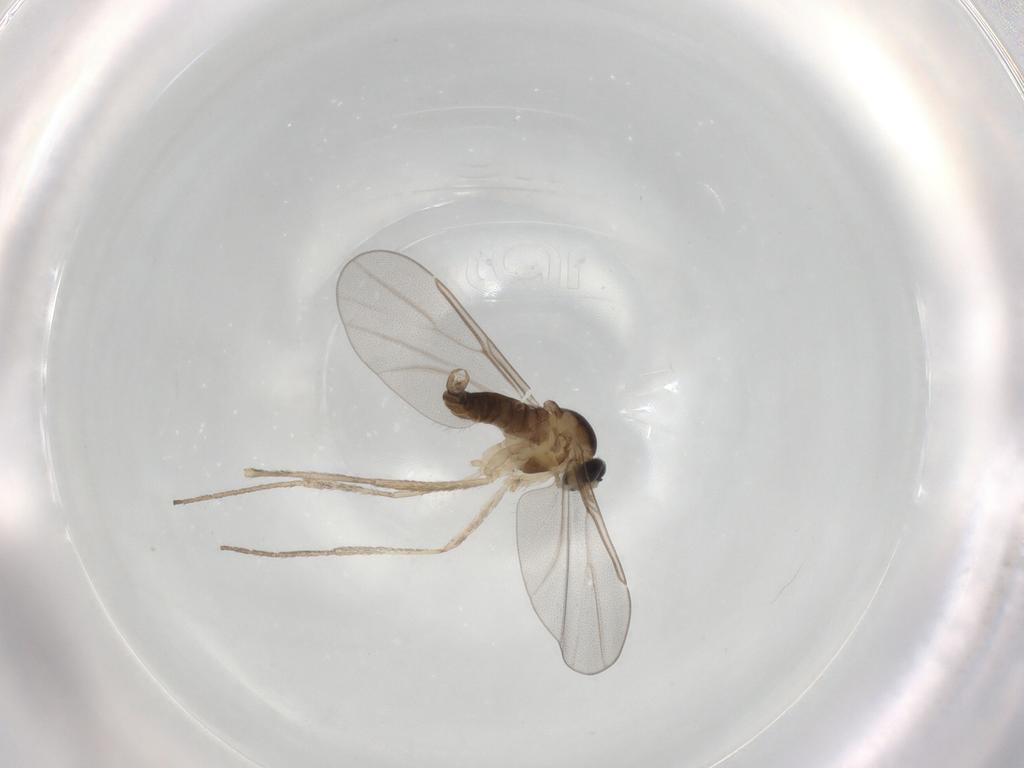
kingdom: Animalia
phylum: Arthropoda
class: Insecta
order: Diptera
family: Cecidomyiidae
